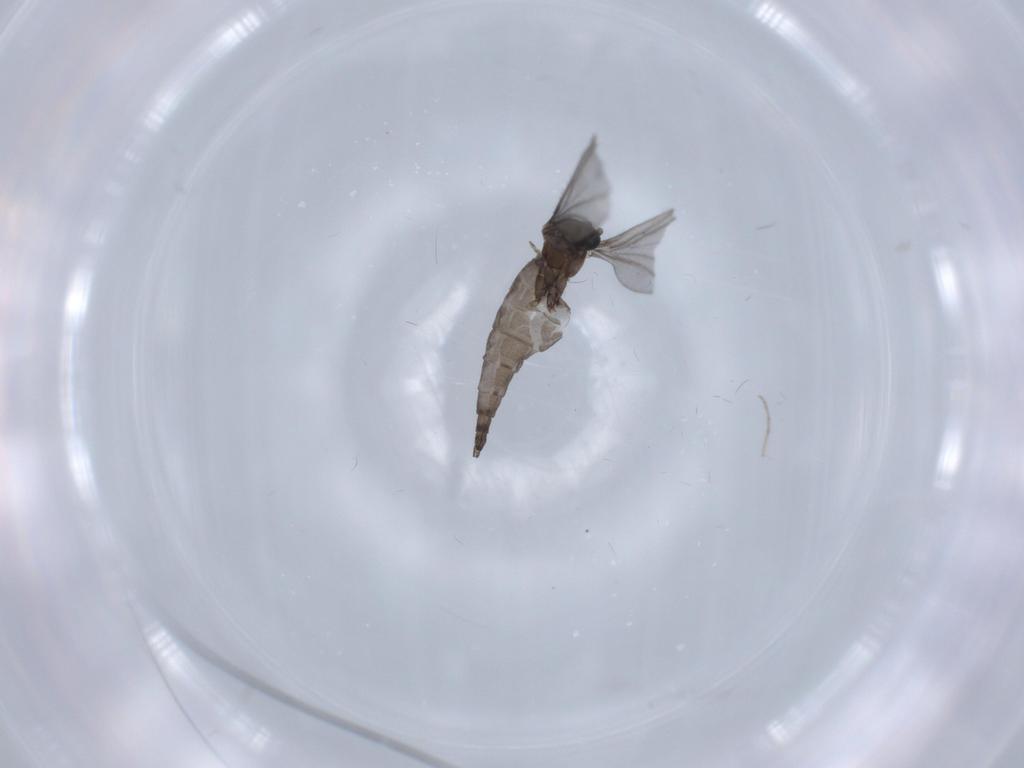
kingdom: Animalia
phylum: Arthropoda
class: Insecta
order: Diptera
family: Sciaridae
